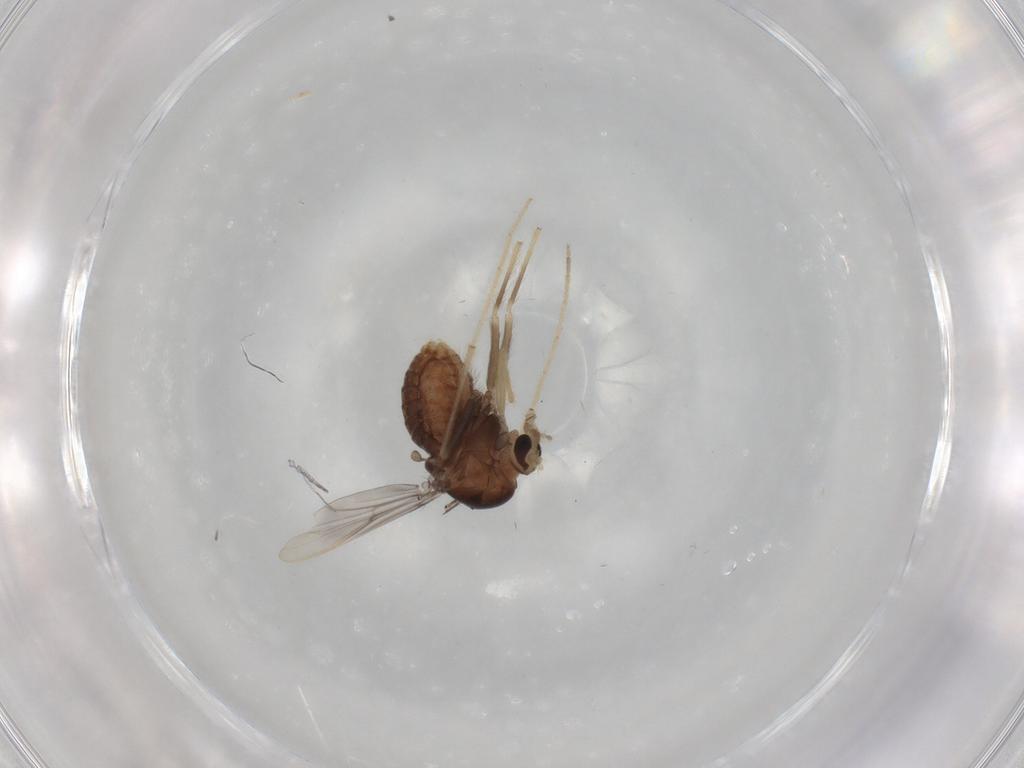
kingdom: Animalia
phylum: Arthropoda
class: Insecta
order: Diptera
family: Chironomidae
